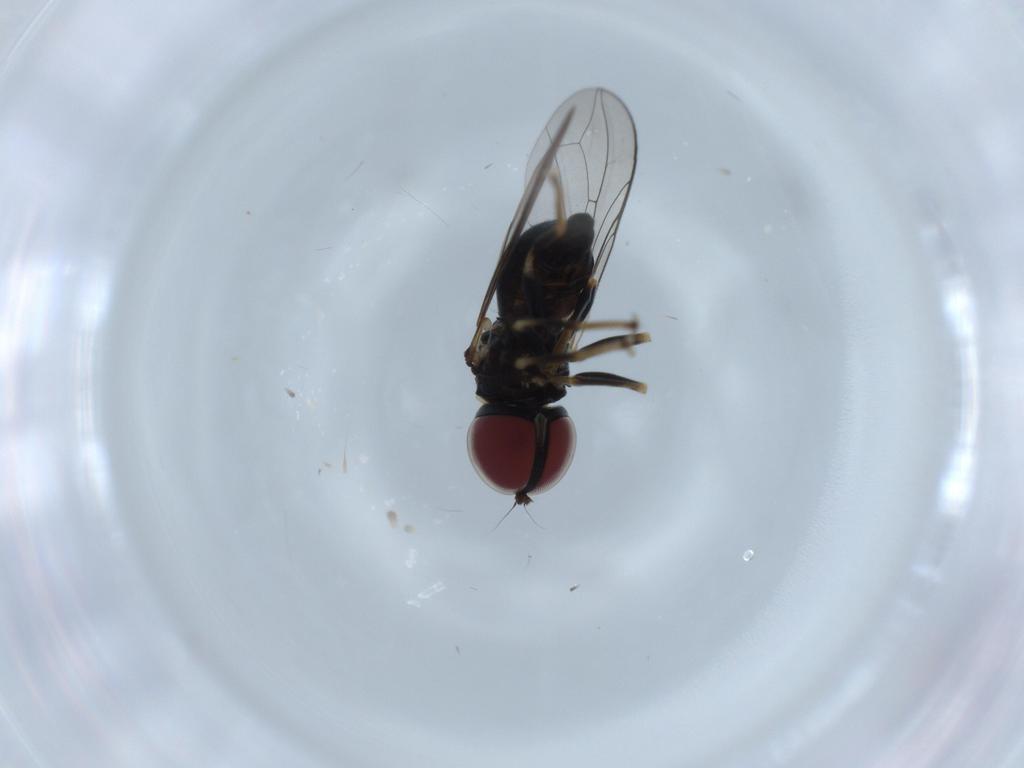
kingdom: Animalia
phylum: Arthropoda
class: Insecta
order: Diptera
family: Pipunculidae
